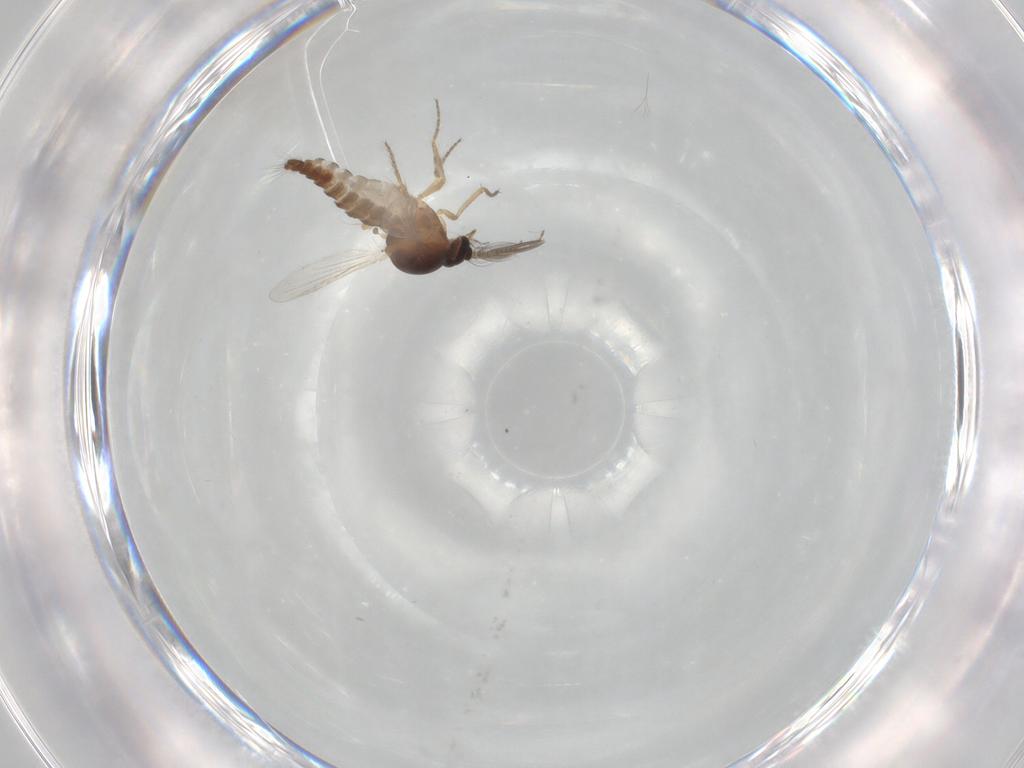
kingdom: Animalia
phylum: Arthropoda
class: Insecta
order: Diptera
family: Ceratopogonidae
